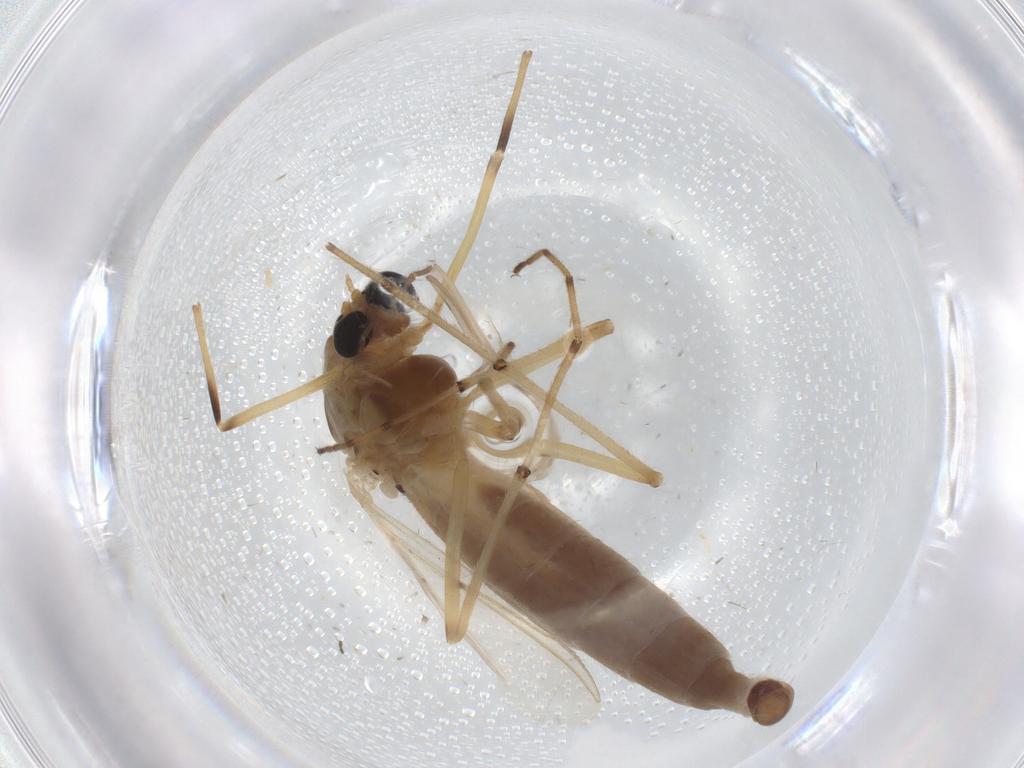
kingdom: Animalia
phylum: Arthropoda
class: Insecta
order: Diptera
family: Chironomidae
